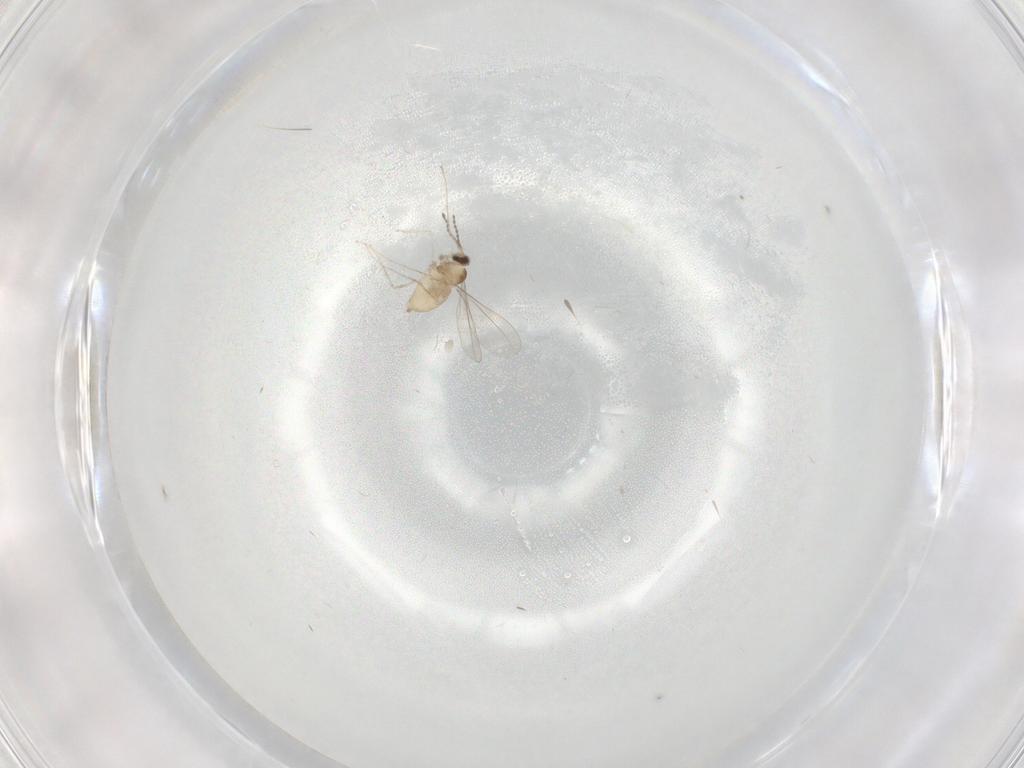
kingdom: Animalia
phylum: Arthropoda
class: Insecta
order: Diptera
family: Cecidomyiidae
